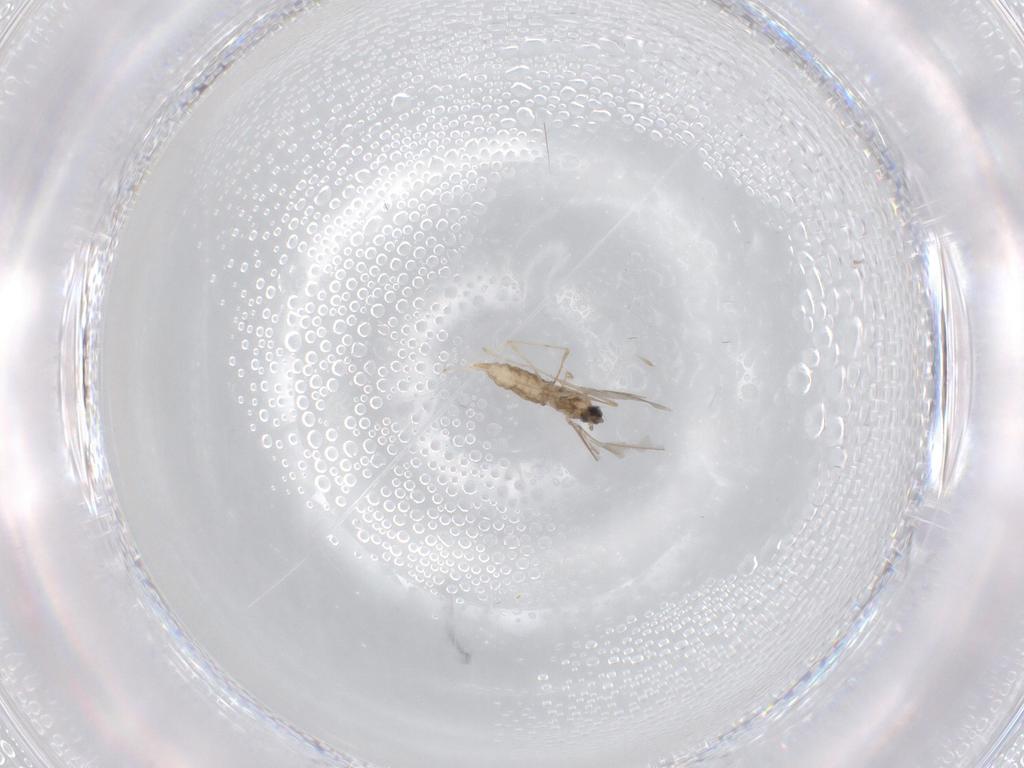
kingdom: Animalia
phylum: Arthropoda
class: Insecta
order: Diptera
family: Cecidomyiidae
